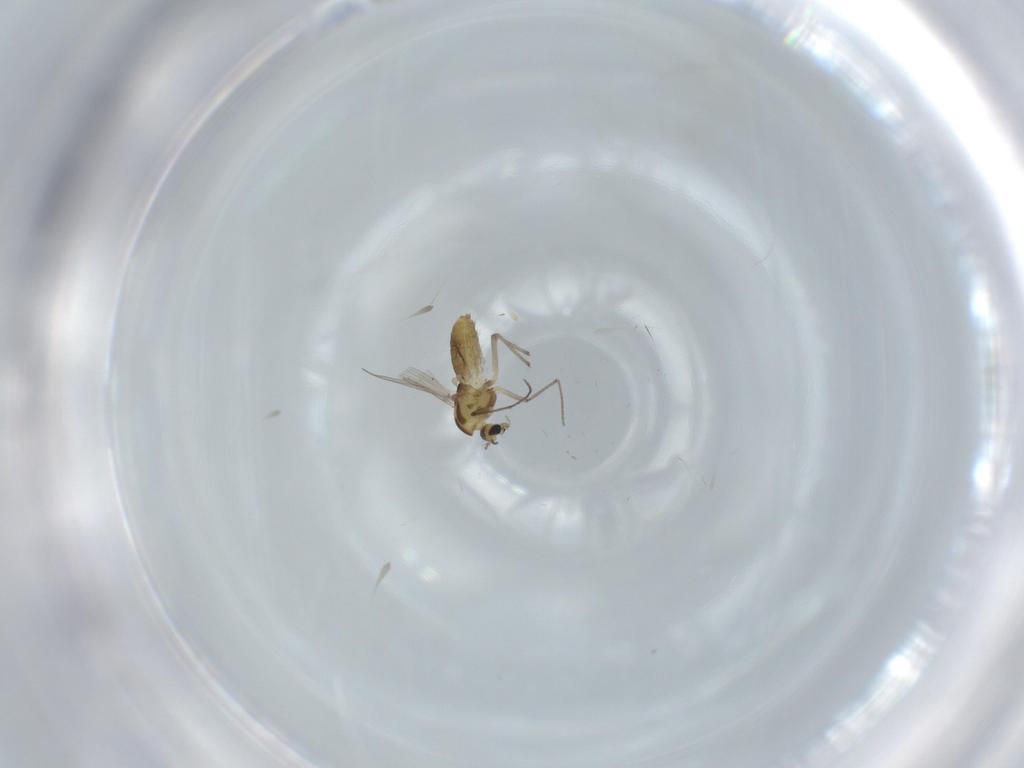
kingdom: Animalia
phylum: Arthropoda
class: Insecta
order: Diptera
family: Chironomidae
